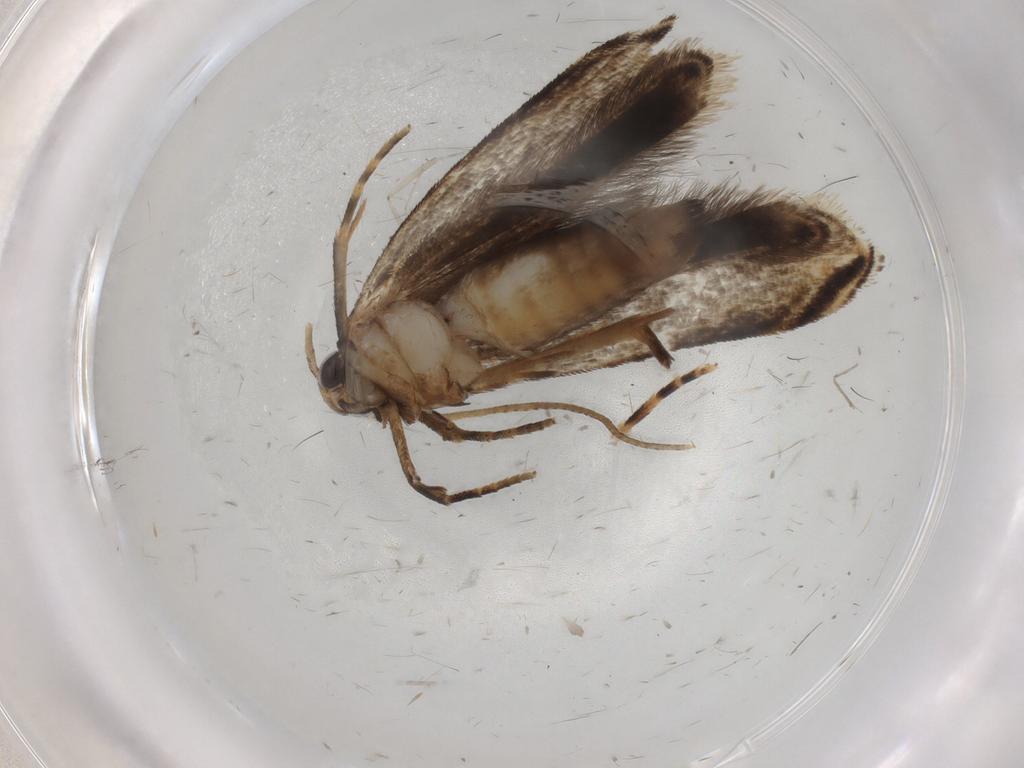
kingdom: Animalia
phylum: Arthropoda
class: Insecta
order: Lepidoptera
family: Gelechiidae
